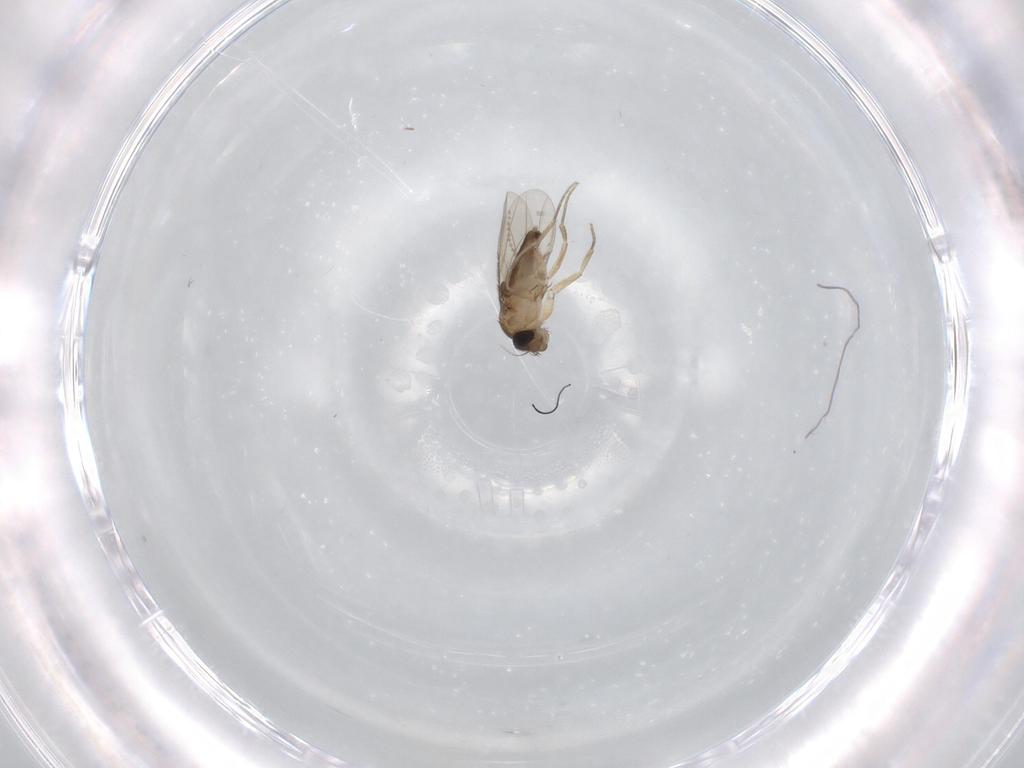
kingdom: Animalia
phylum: Arthropoda
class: Insecta
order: Diptera
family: Phoridae
